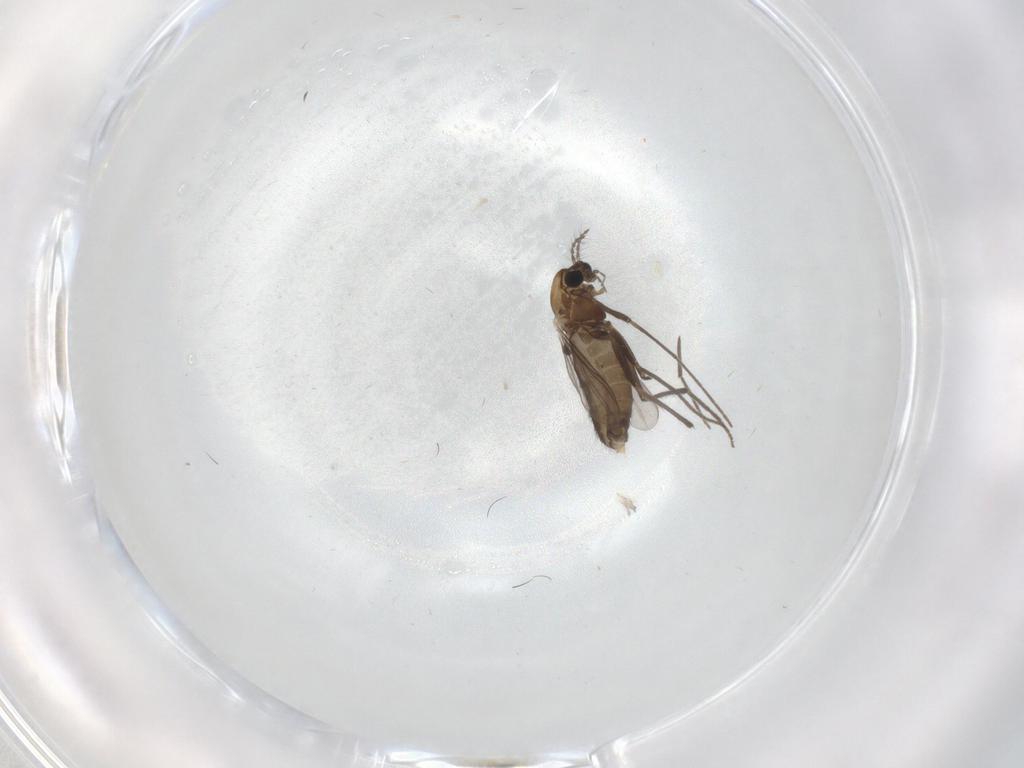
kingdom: Animalia
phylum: Arthropoda
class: Insecta
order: Diptera
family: Chironomidae
